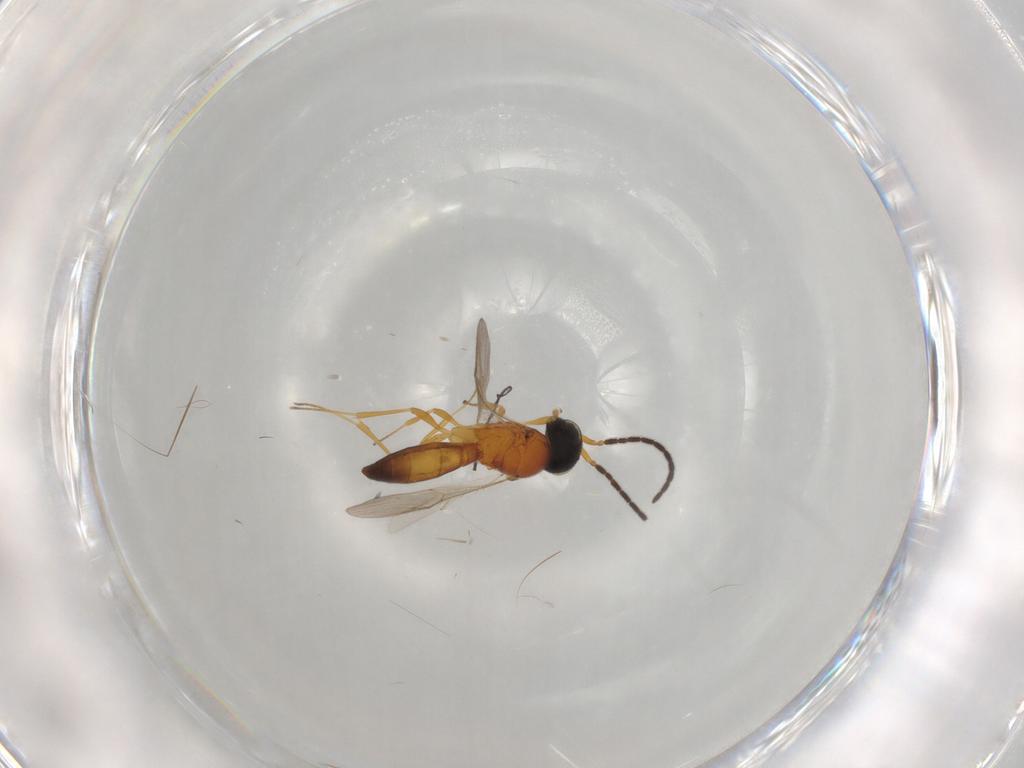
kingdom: Animalia
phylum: Arthropoda
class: Insecta
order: Hymenoptera
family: Scelionidae
